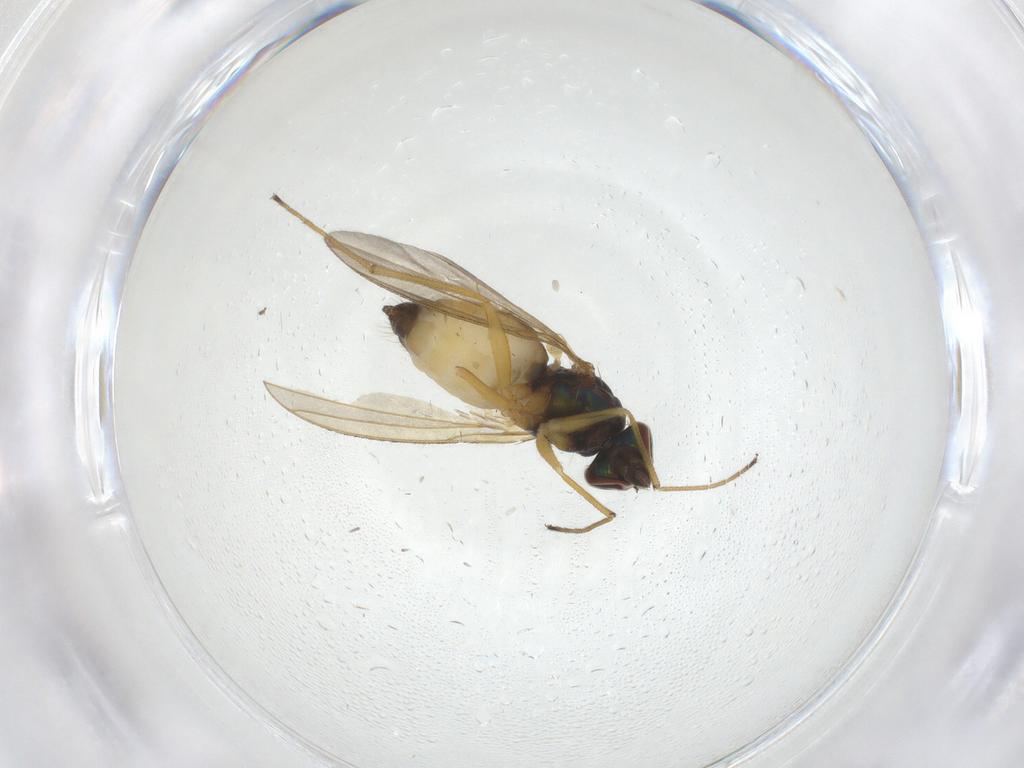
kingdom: Animalia
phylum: Arthropoda
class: Insecta
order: Diptera
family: Dolichopodidae
